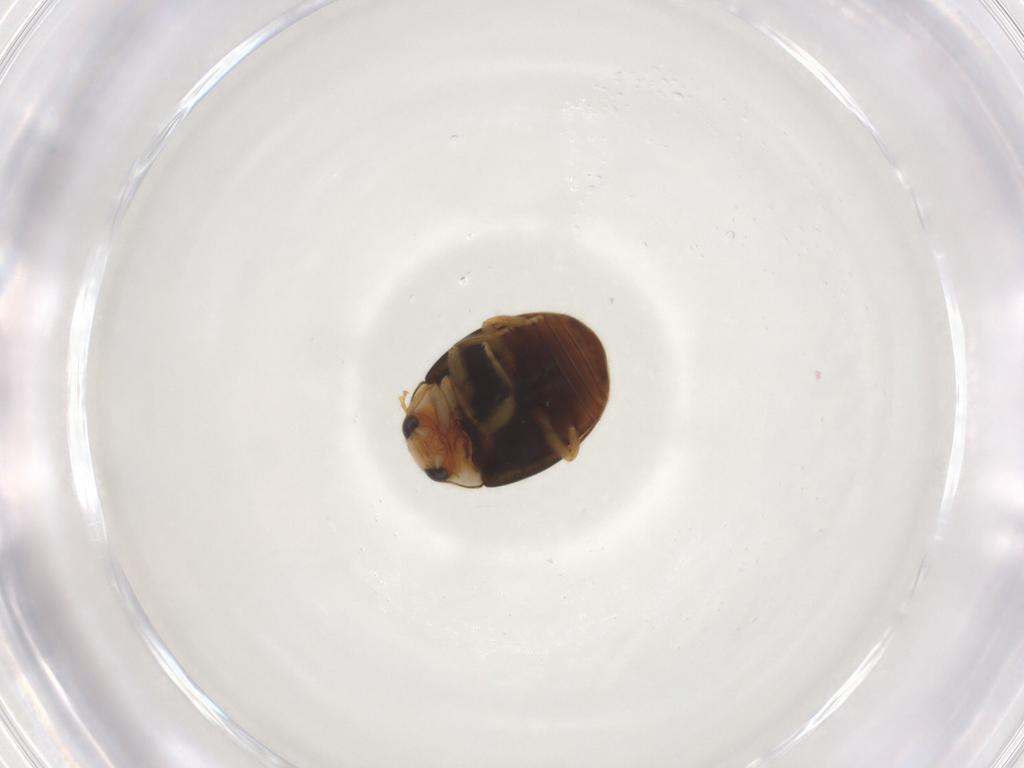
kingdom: Animalia
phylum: Arthropoda
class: Insecta
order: Coleoptera
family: Coccinellidae
